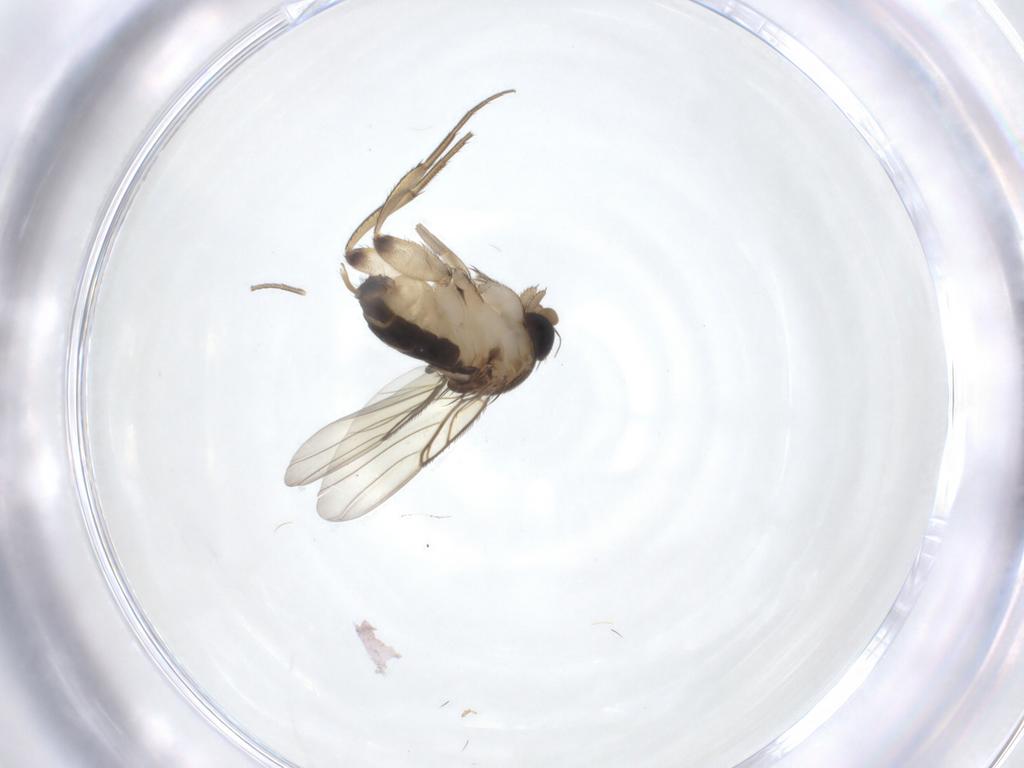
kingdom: Animalia
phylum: Arthropoda
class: Insecta
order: Diptera
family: Phoridae
